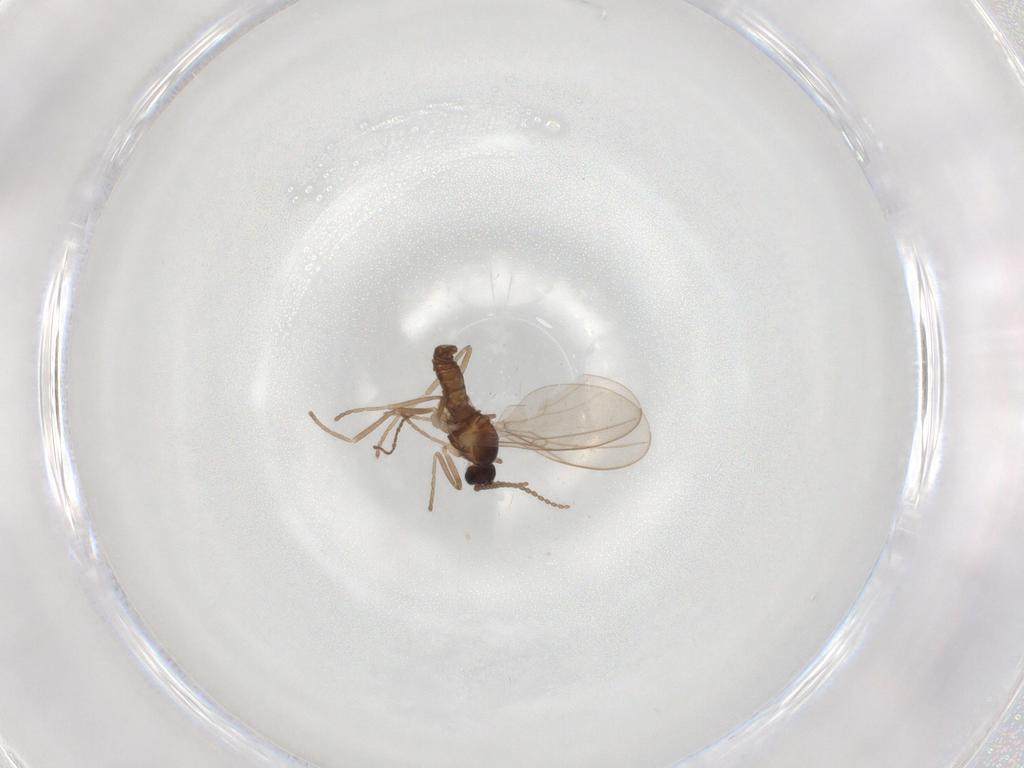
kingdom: Animalia
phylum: Arthropoda
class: Insecta
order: Diptera
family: Cecidomyiidae
